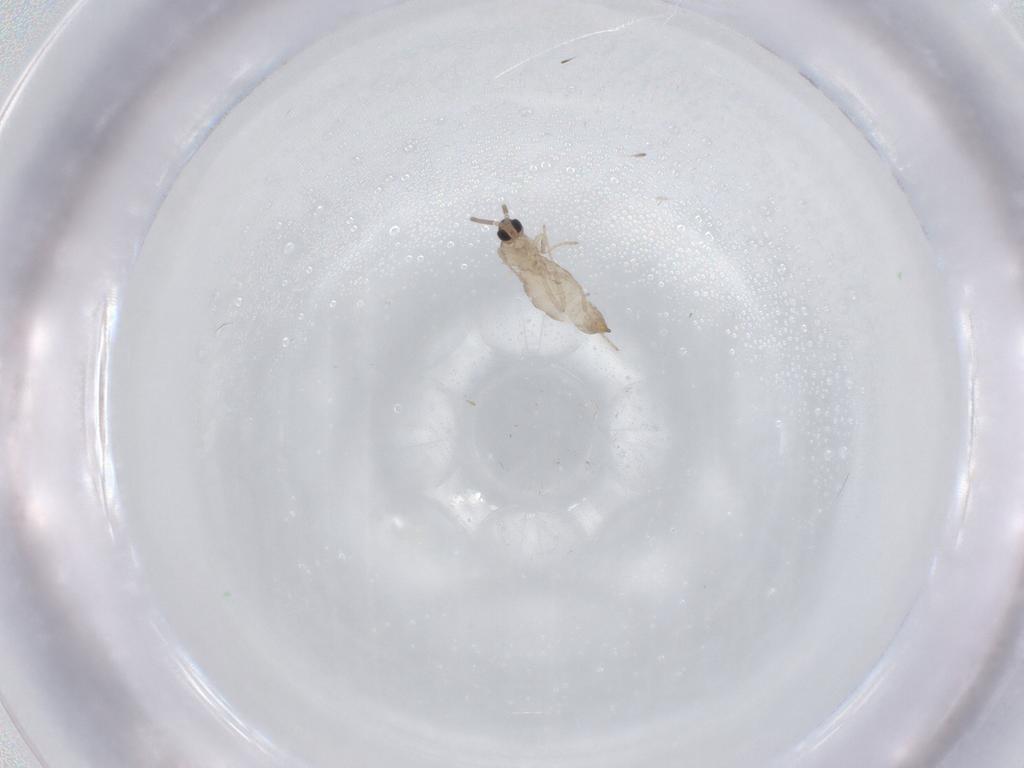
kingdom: Animalia
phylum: Arthropoda
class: Insecta
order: Diptera
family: Cecidomyiidae
